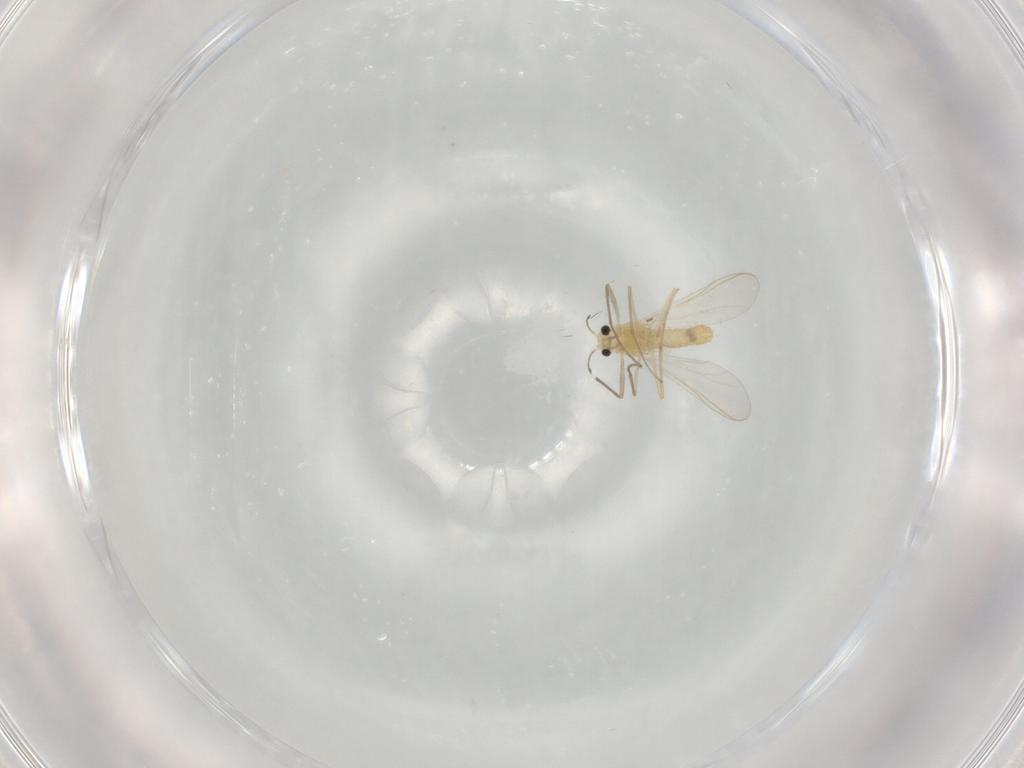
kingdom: Animalia
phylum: Arthropoda
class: Insecta
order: Diptera
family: Chironomidae
